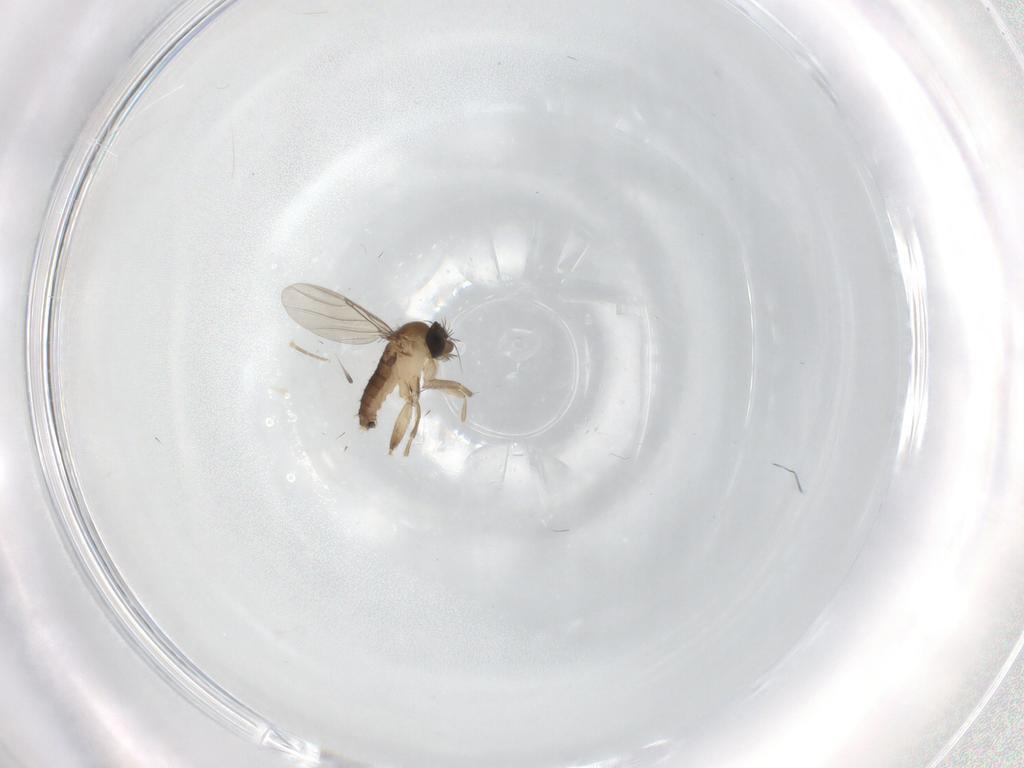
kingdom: Animalia
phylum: Arthropoda
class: Insecta
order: Diptera
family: Phoridae
